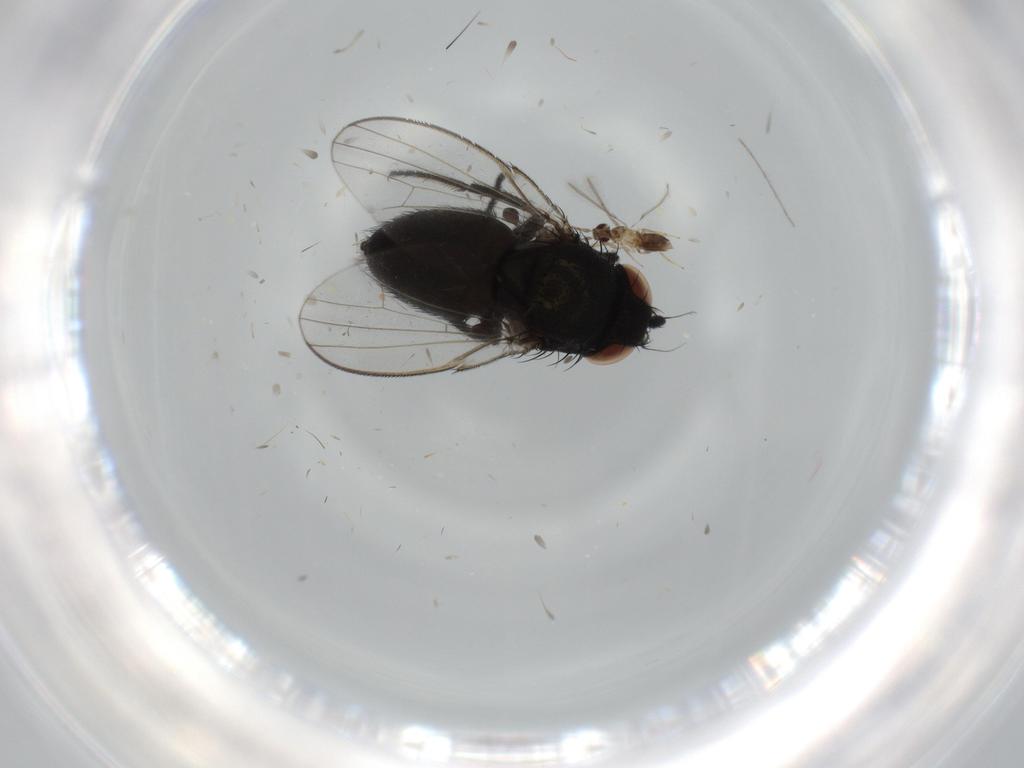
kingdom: Animalia
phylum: Arthropoda
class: Insecta
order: Diptera
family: Milichiidae
